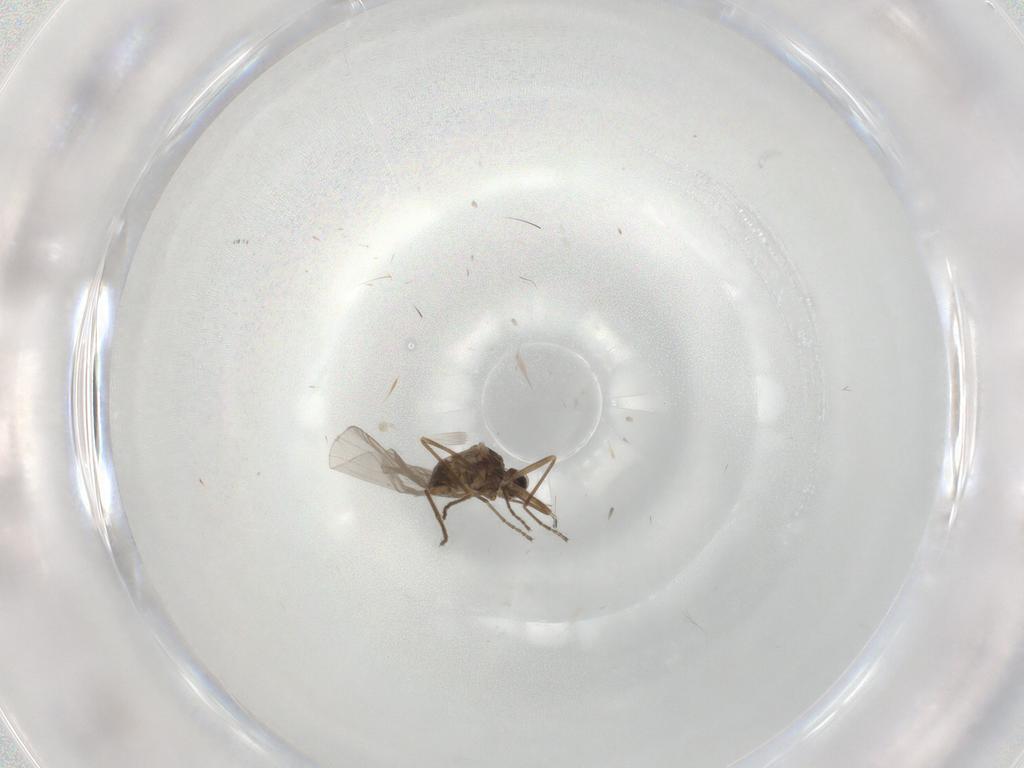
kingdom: Animalia
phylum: Arthropoda
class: Insecta
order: Diptera
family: Cecidomyiidae
